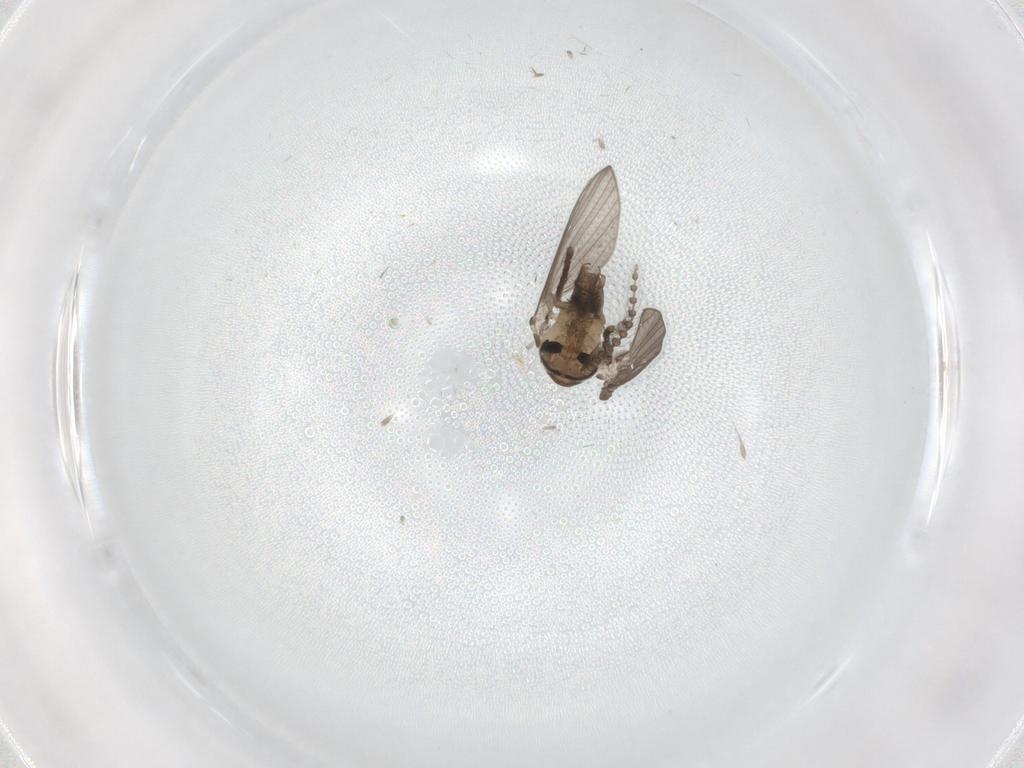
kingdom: Animalia
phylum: Arthropoda
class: Insecta
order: Diptera
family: Psychodidae
